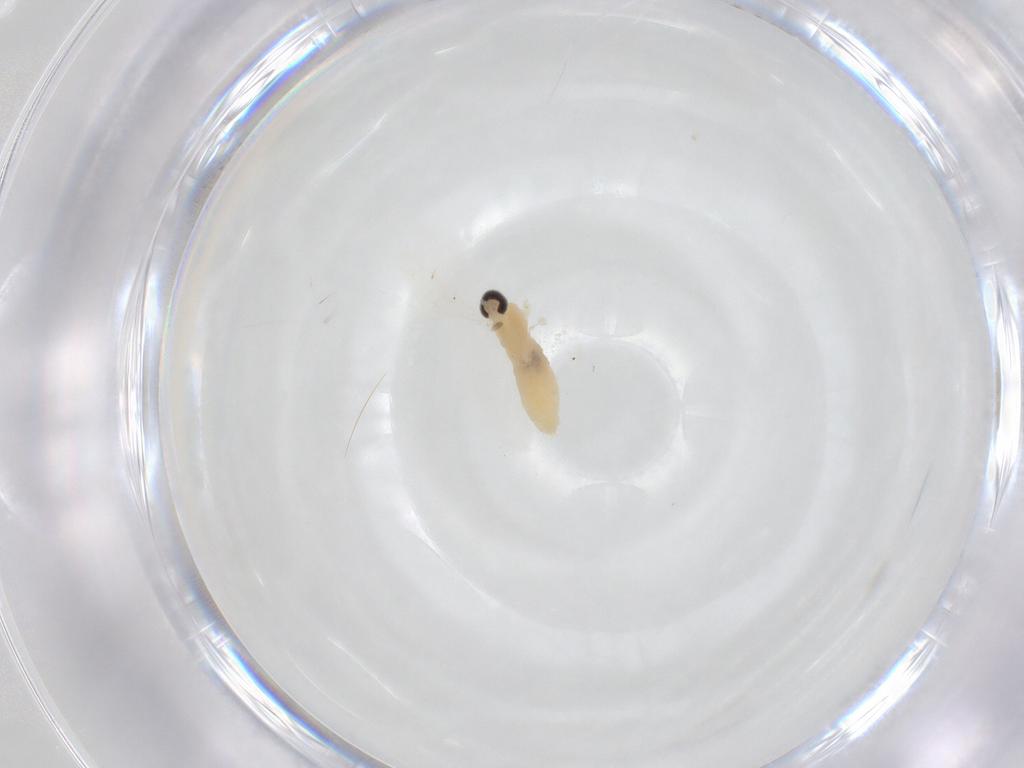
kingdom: Animalia
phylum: Arthropoda
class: Insecta
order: Diptera
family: Cecidomyiidae
